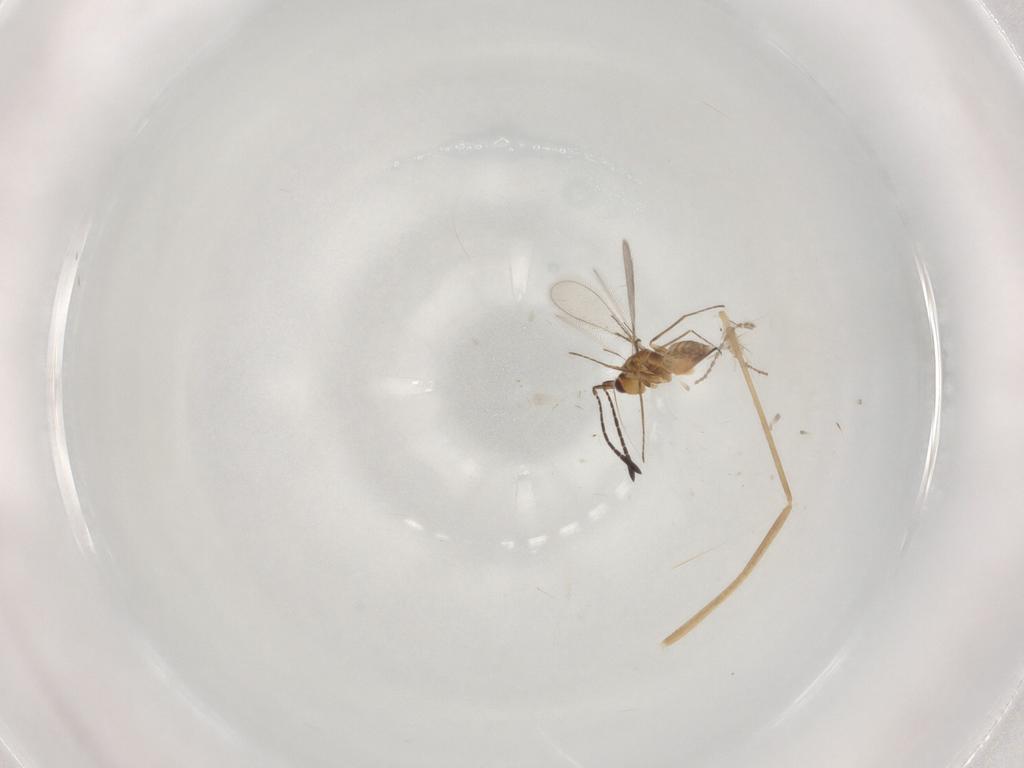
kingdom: Animalia
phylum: Arthropoda
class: Insecta
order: Hymenoptera
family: Mymaridae
